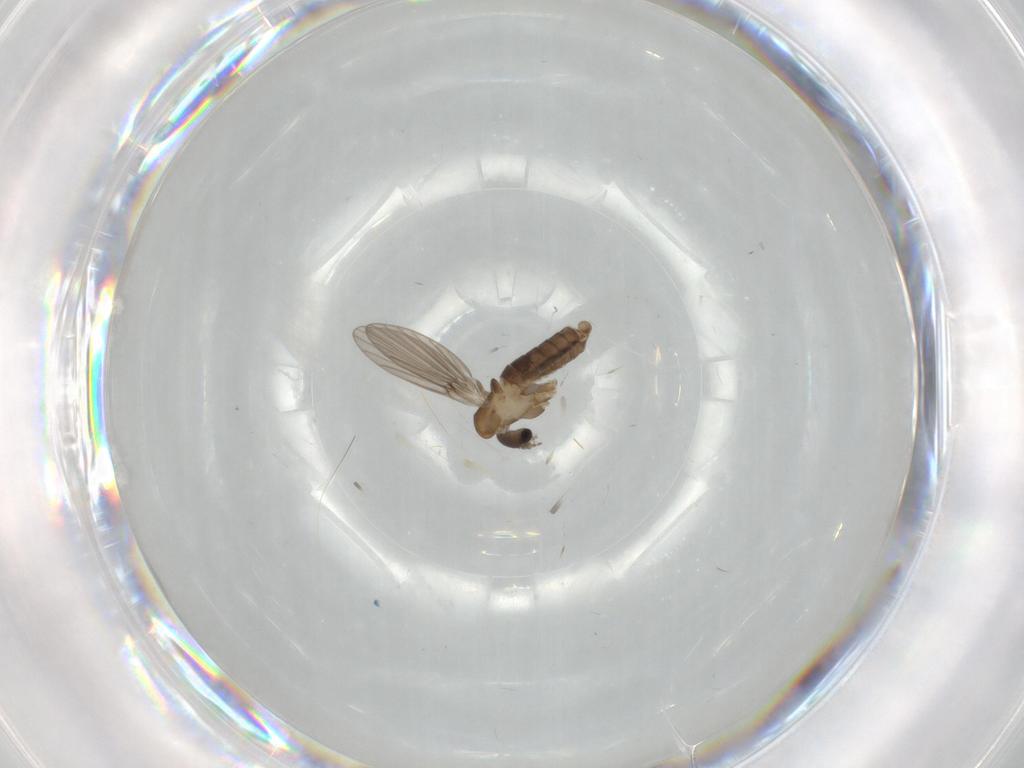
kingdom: Animalia
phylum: Arthropoda
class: Insecta
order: Diptera
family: Psychodidae
